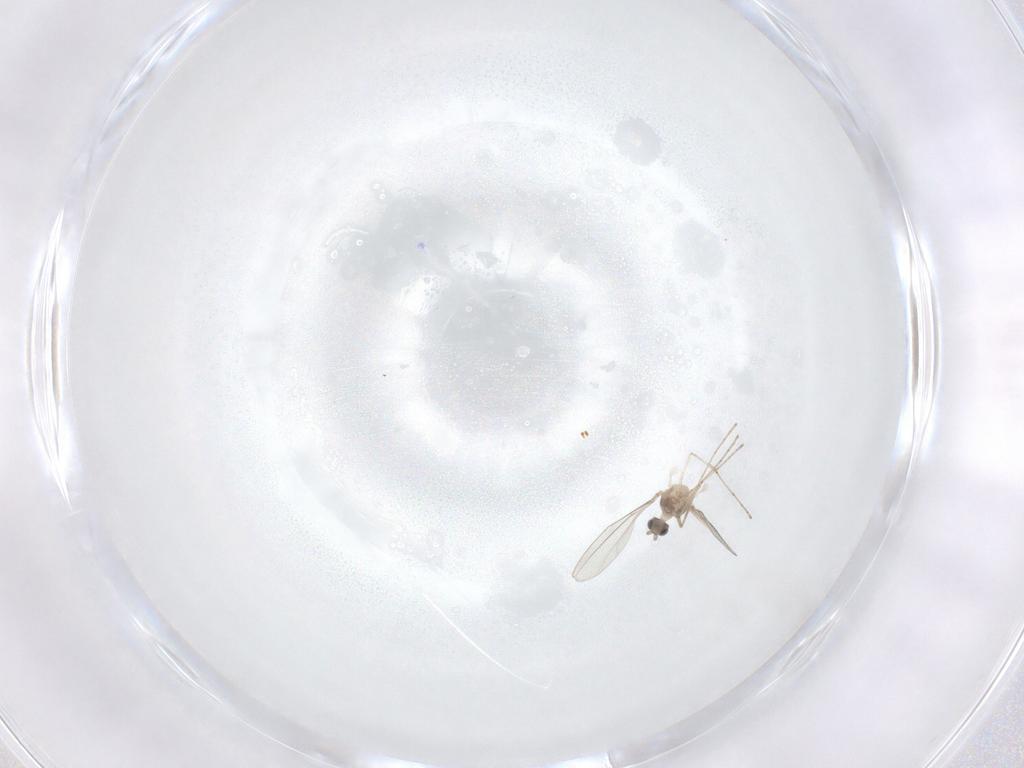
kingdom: Animalia
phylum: Arthropoda
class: Insecta
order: Diptera
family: Cecidomyiidae
